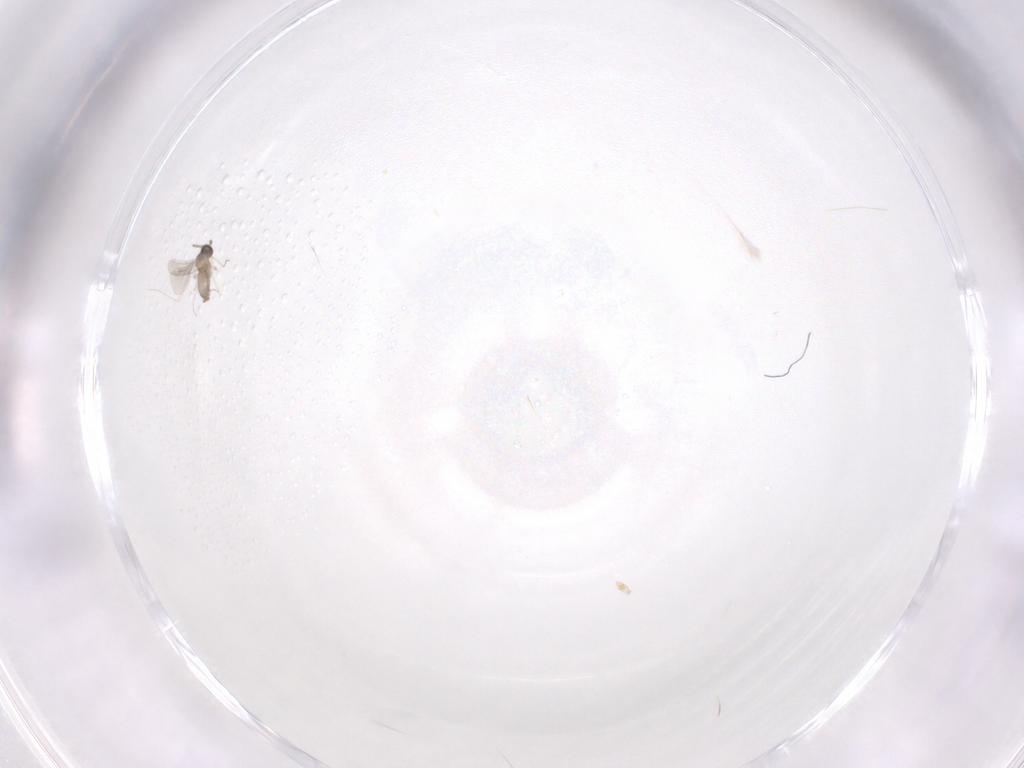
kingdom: Animalia
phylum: Arthropoda
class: Insecta
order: Diptera
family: Cecidomyiidae
